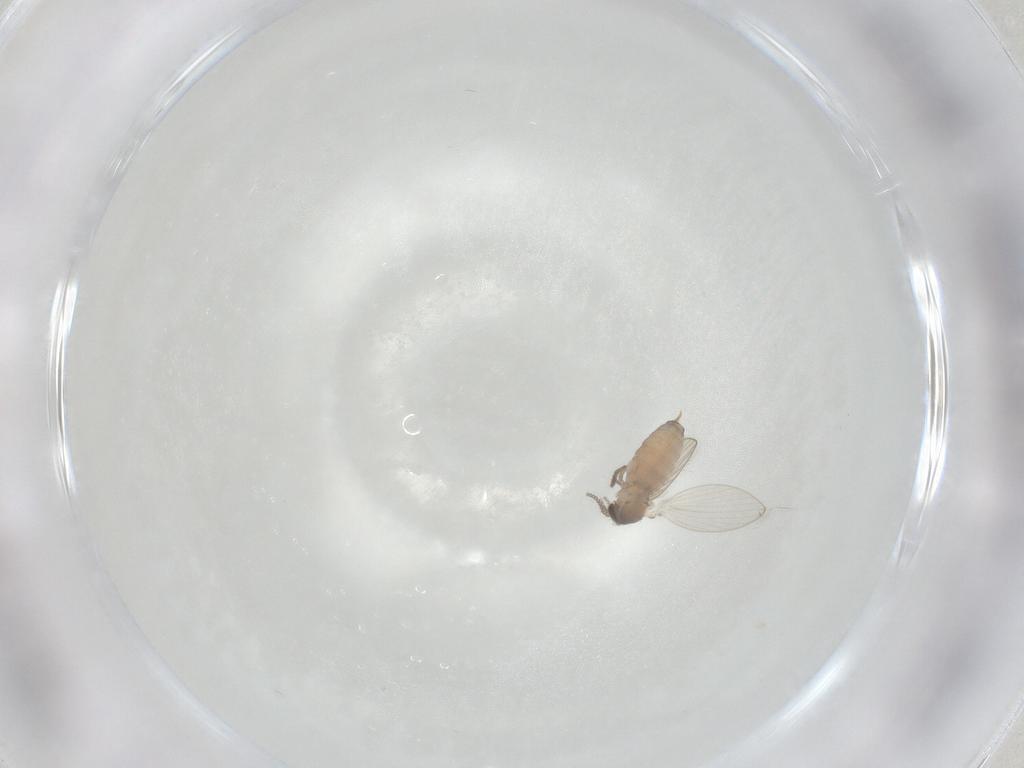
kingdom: Animalia
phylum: Arthropoda
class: Insecta
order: Diptera
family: Psychodidae
